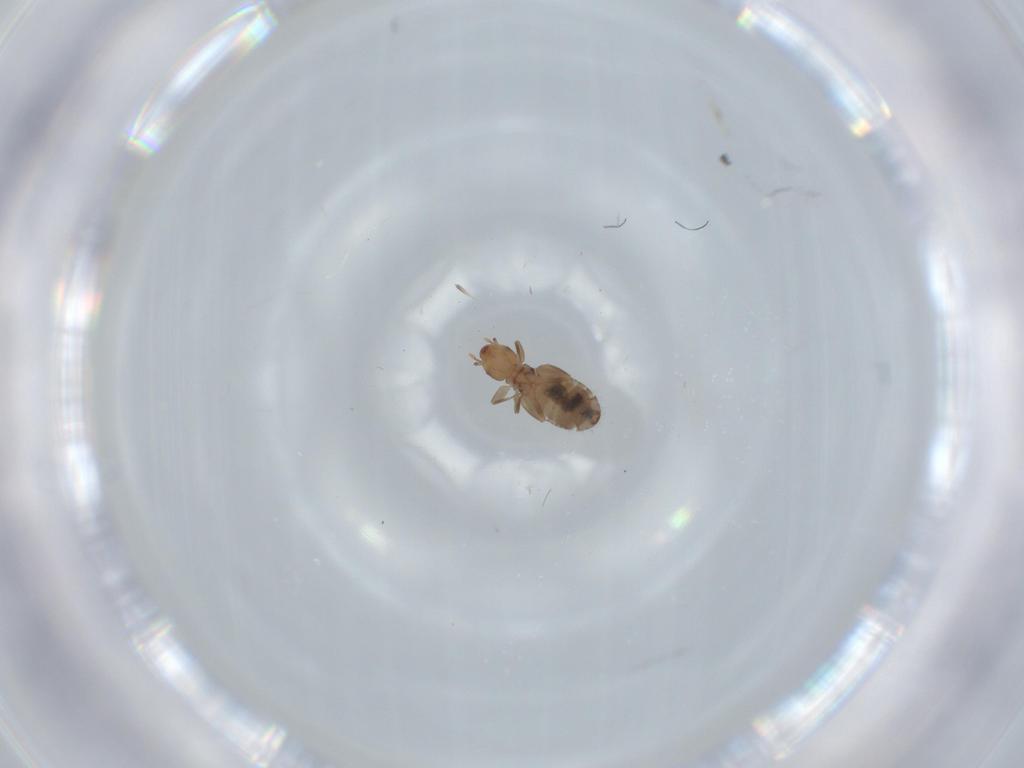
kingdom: Animalia
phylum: Arthropoda
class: Insecta
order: Psocodea
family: Liposcelididae
